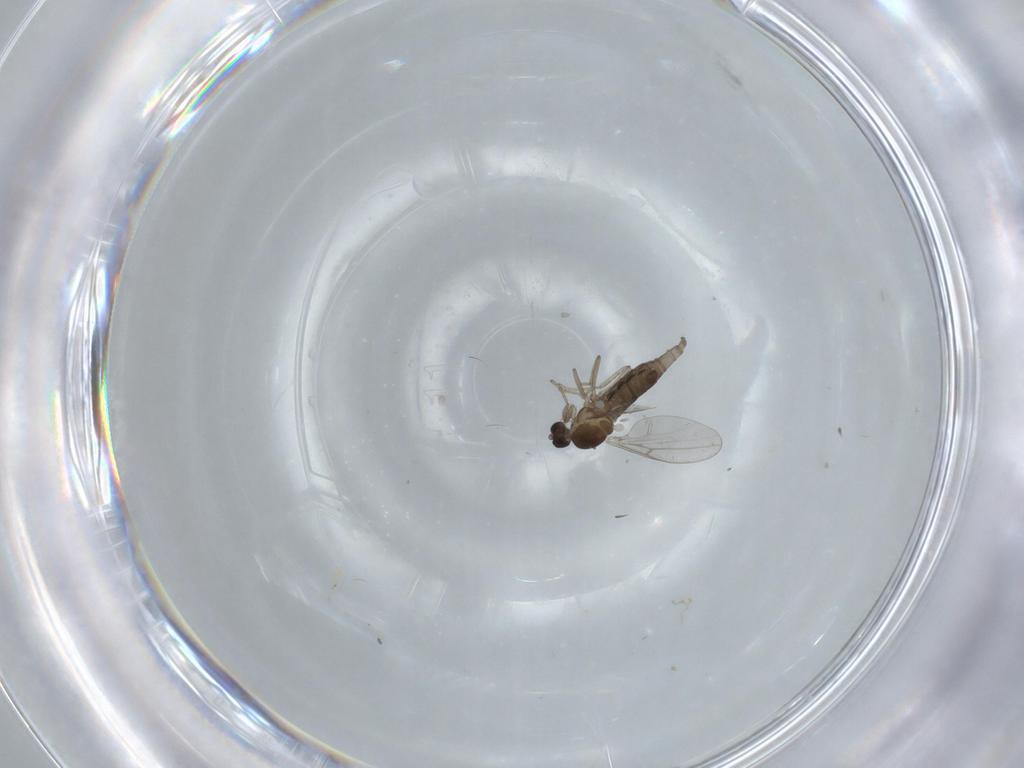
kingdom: Animalia
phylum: Arthropoda
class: Insecta
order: Diptera
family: Cecidomyiidae
